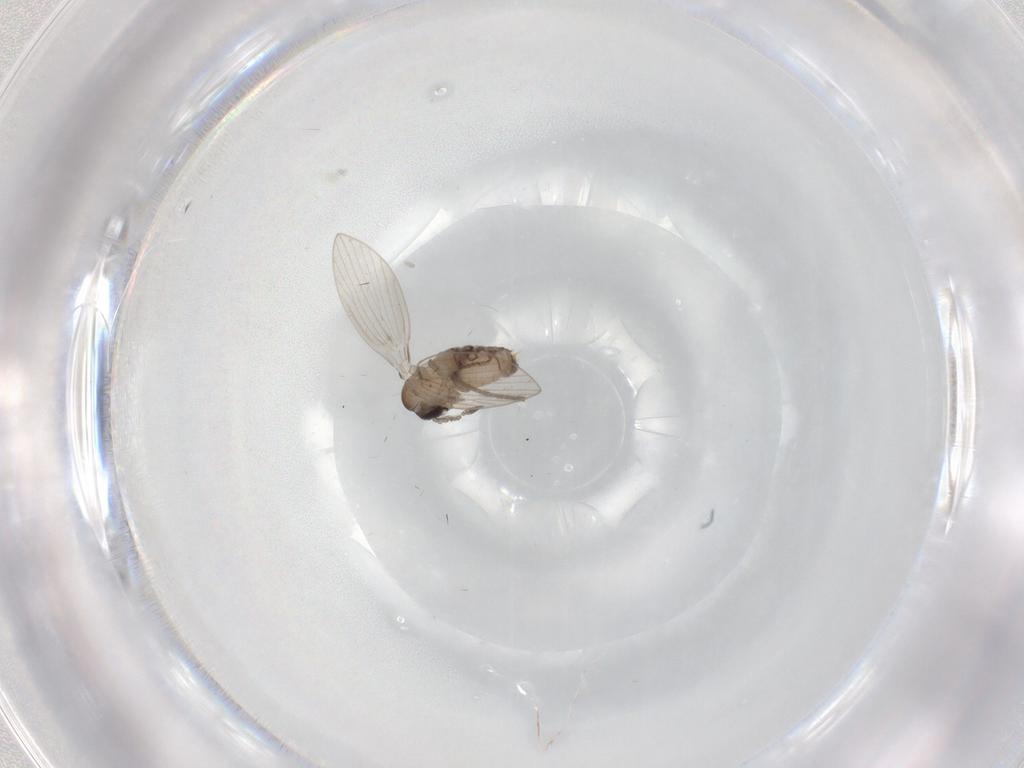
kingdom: Animalia
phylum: Arthropoda
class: Insecta
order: Diptera
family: Psychodidae
